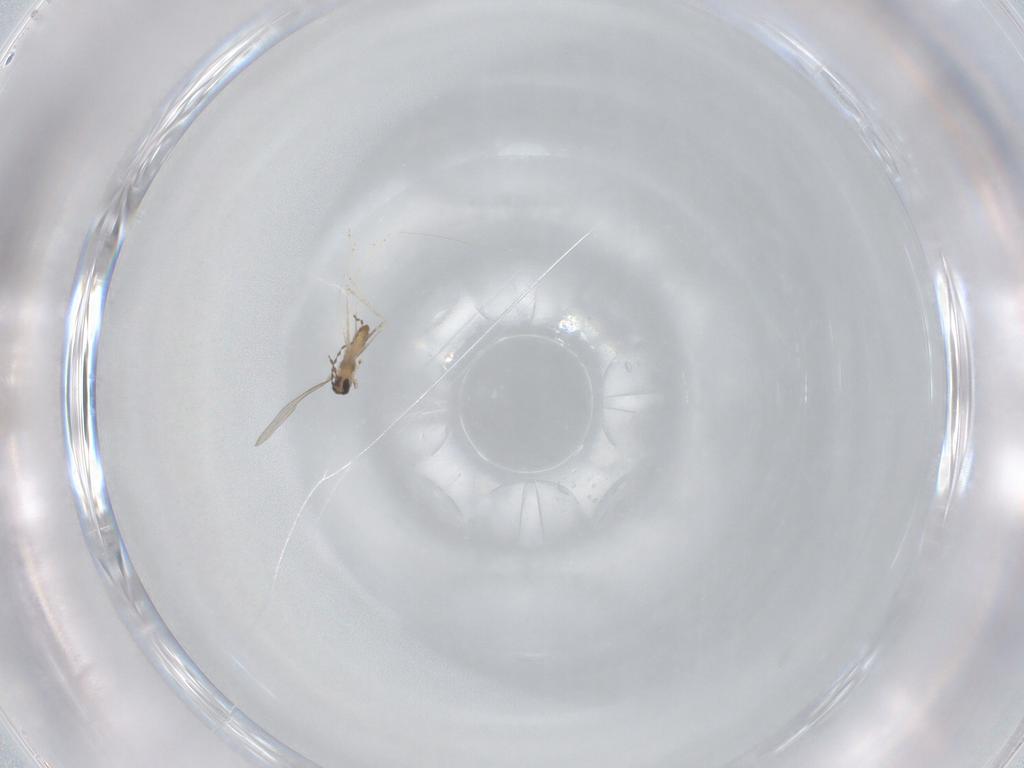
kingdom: Animalia
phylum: Arthropoda
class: Insecta
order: Diptera
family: Cecidomyiidae
